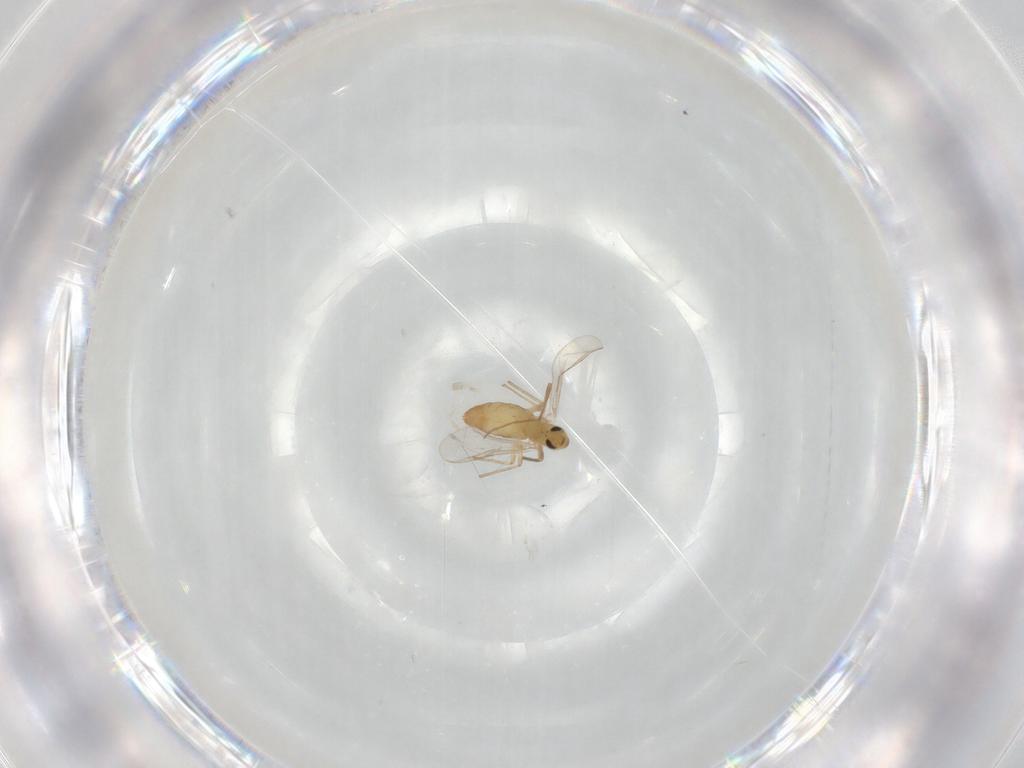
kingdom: Animalia
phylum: Arthropoda
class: Insecta
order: Diptera
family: Chironomidae
